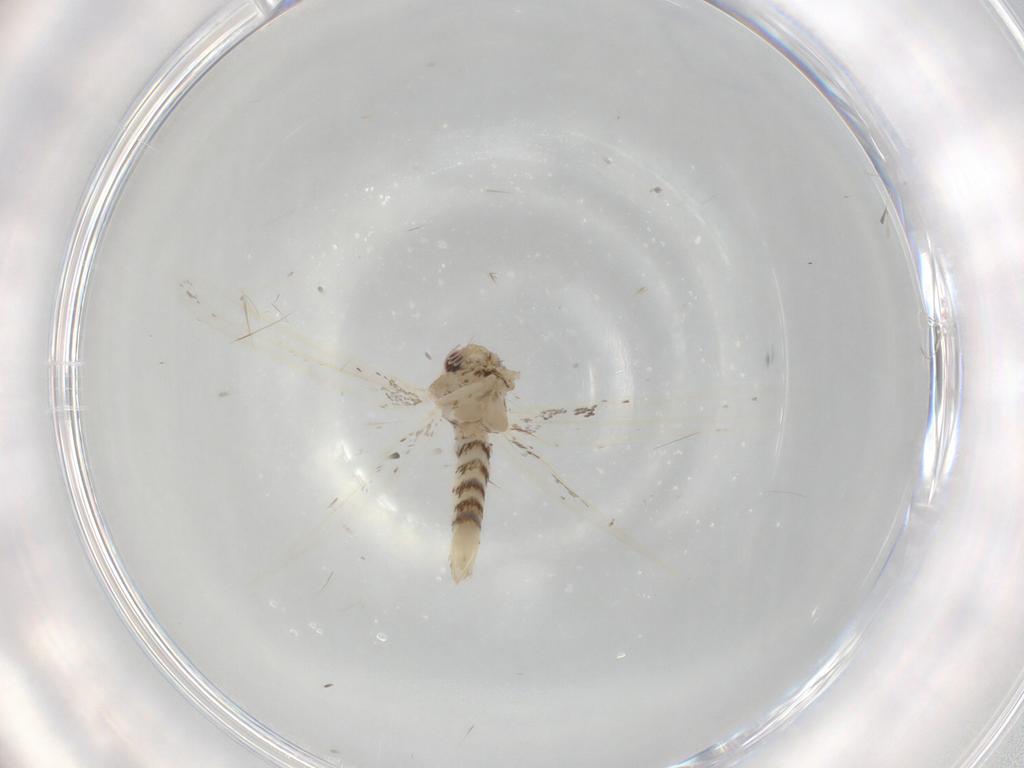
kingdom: Animalia
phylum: Arthropoda
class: Insecta
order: Lepidoptera
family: Gracillariidae
